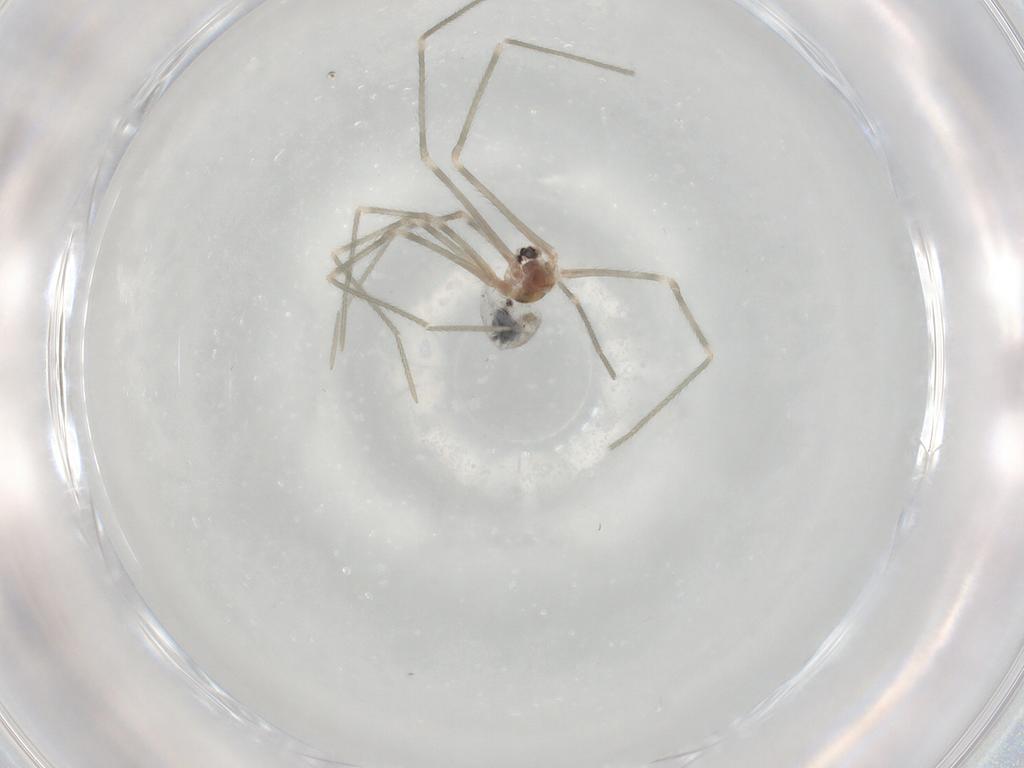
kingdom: Animalia
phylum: Arthropoda
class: Arachnida
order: Araneae
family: Pholcidae
